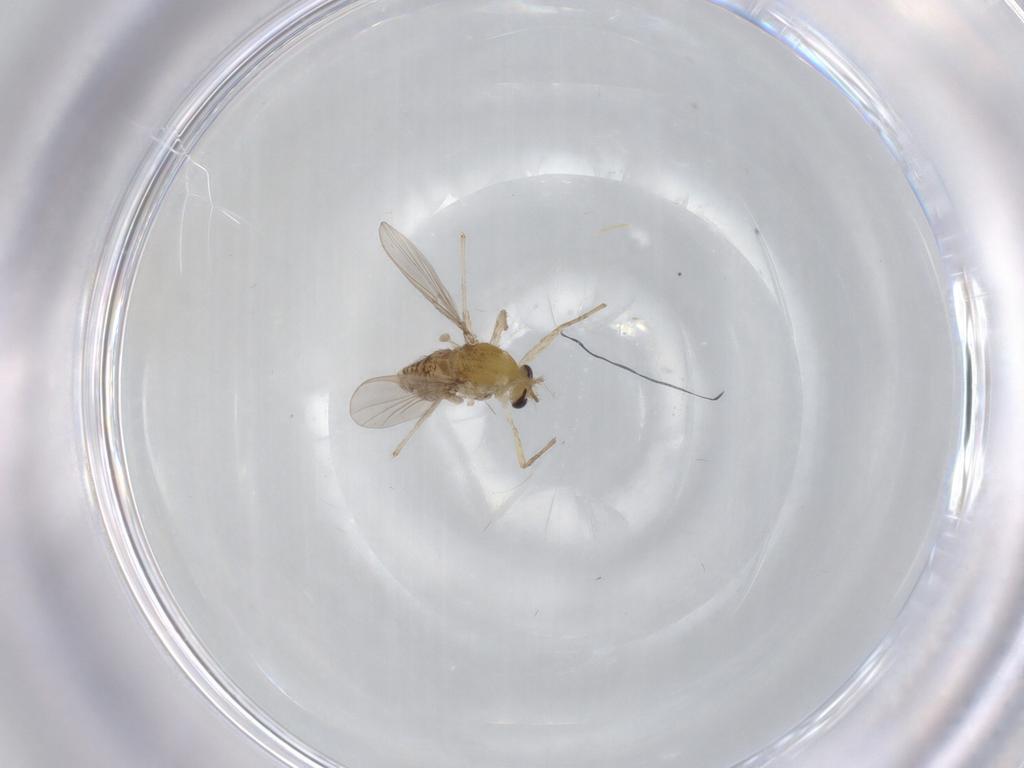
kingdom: Animalia
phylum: Arthropoda
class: Insecta
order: Diptera
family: Chironomidae
